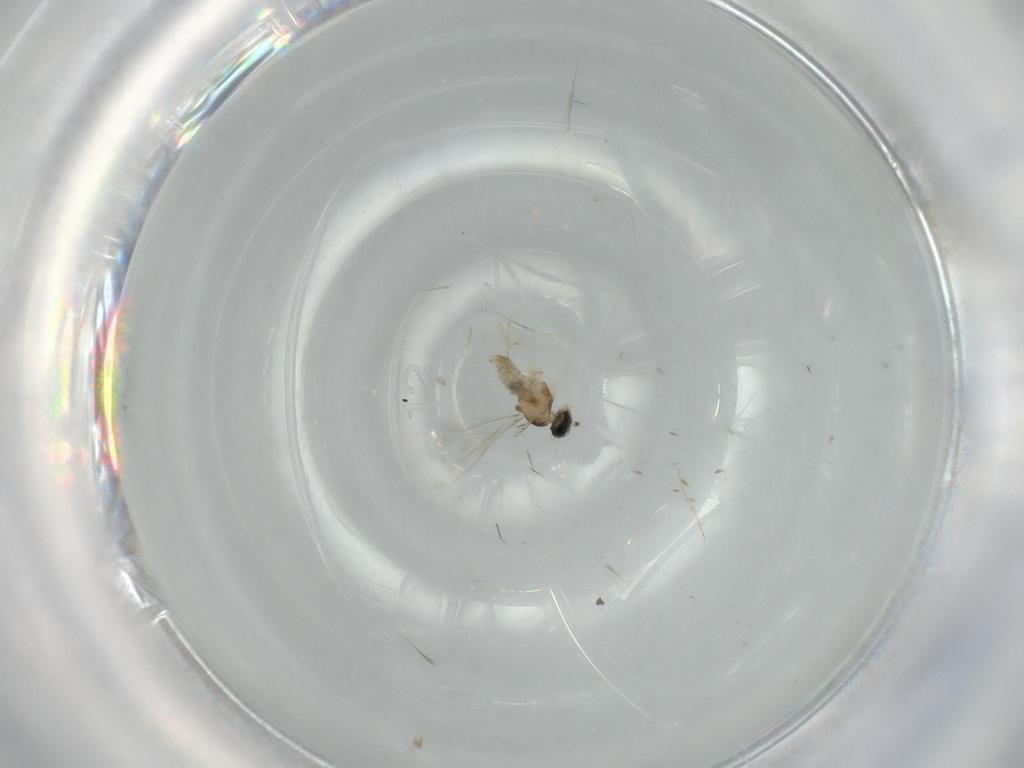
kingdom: Animalia
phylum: Arthropoda
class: Insecta
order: Diptera
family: Cecidomyiidae
